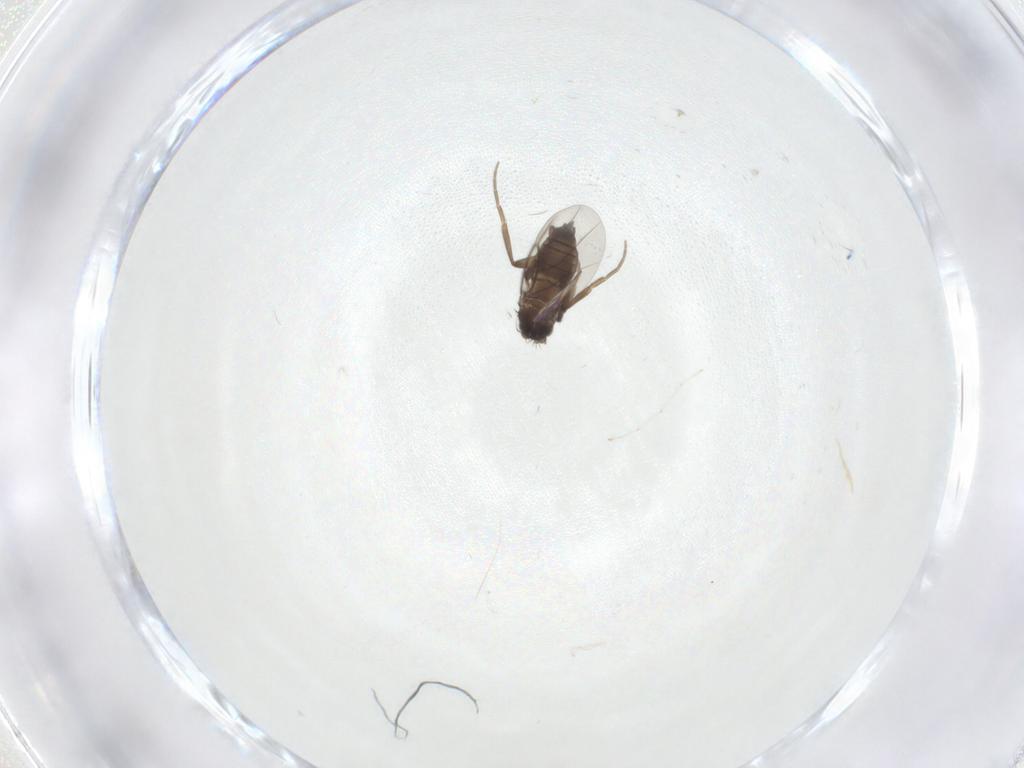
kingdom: Animalia
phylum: Arthropoda
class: Insecta
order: Diptera
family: Phoridae
